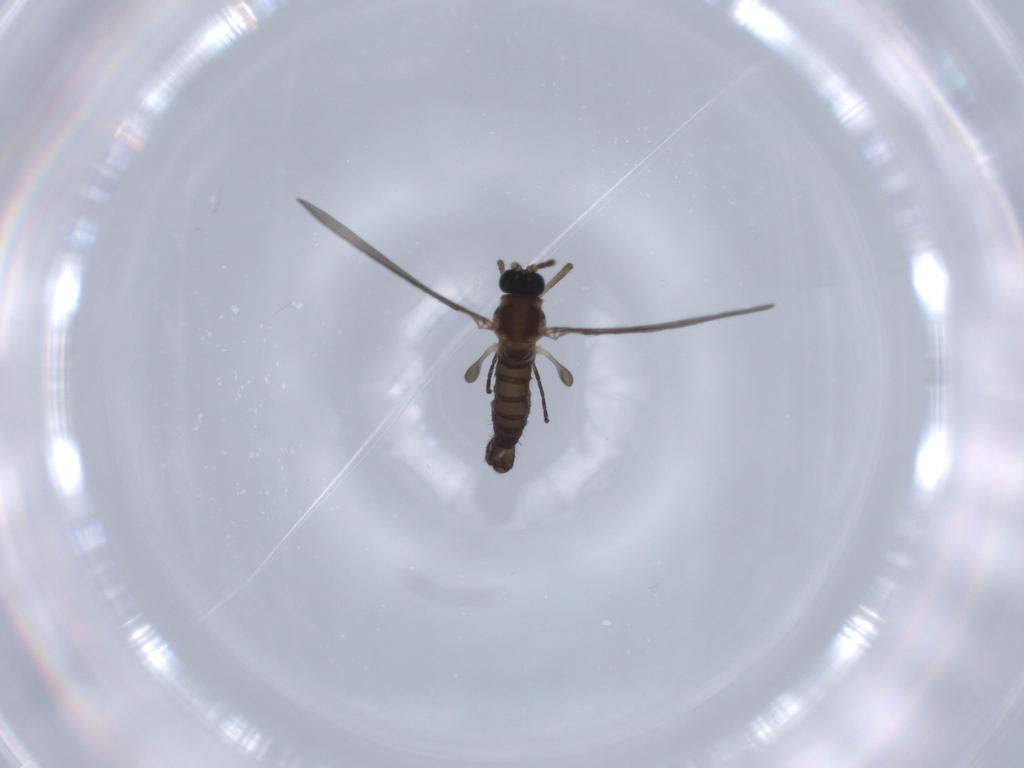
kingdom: Animalia
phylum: Arthropoda
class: Insecta
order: Diptera
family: Sciaridae
